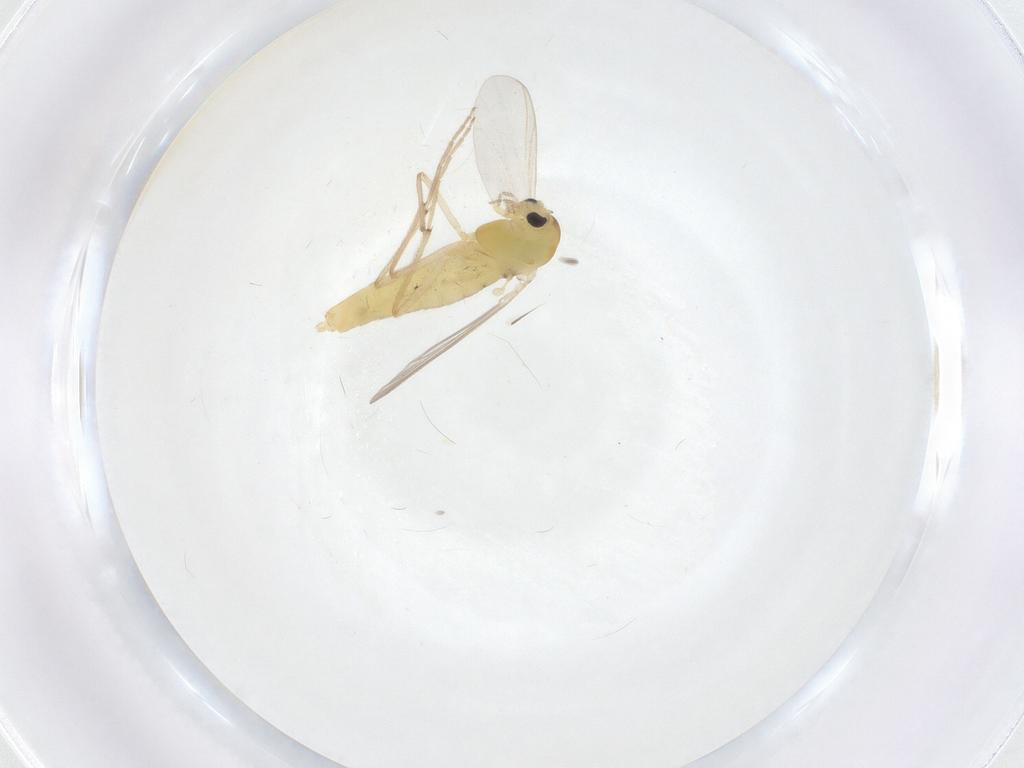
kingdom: Animalia
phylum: Arthropoda
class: Insecta
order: Diptera
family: Chironomidae
